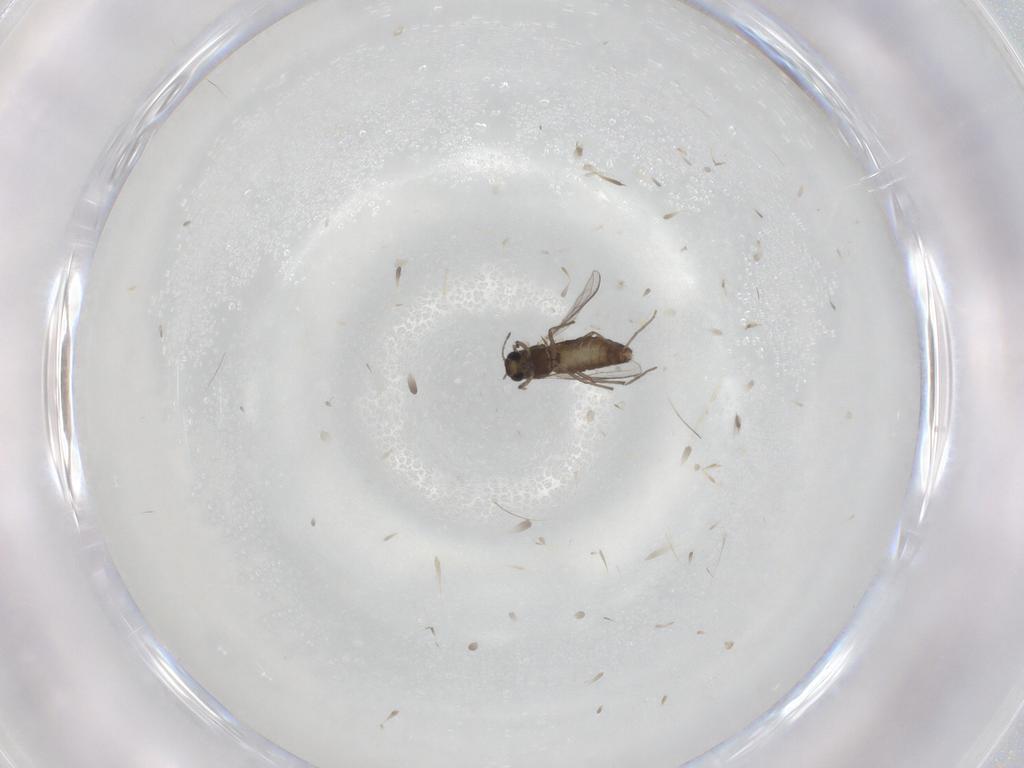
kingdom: Animalia
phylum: Arthropoda
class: Insecta
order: Diptera
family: Chironomidae
